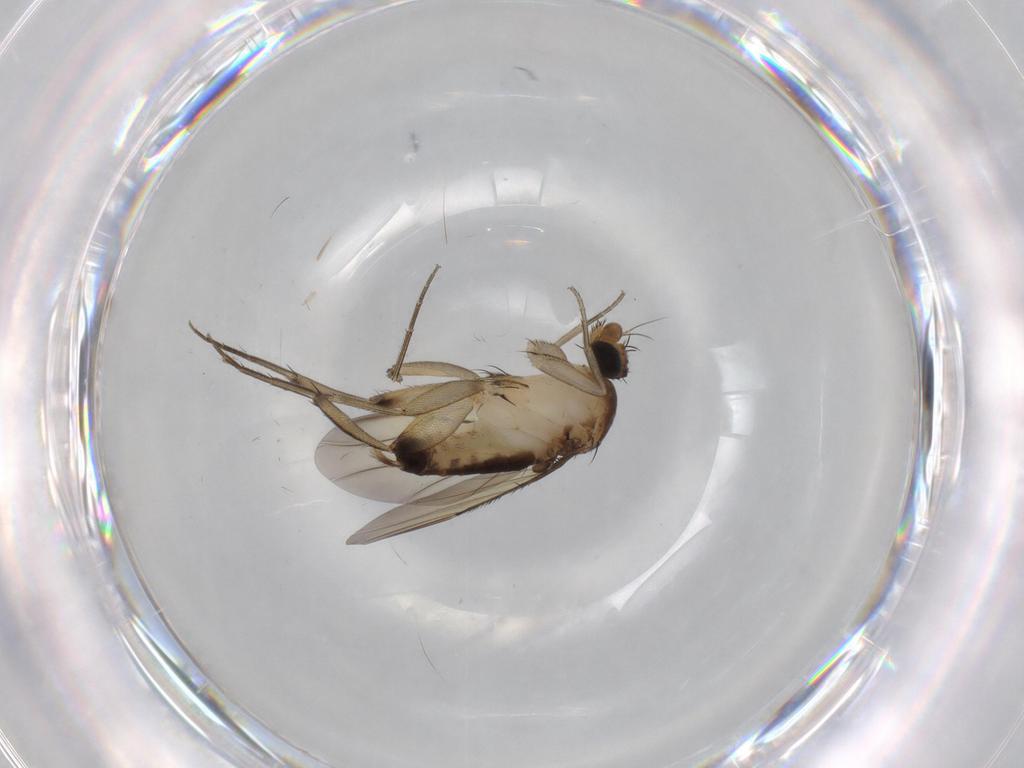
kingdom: Animalia
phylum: Arthropoda
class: Insecta
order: Diptera
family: Phoridae
